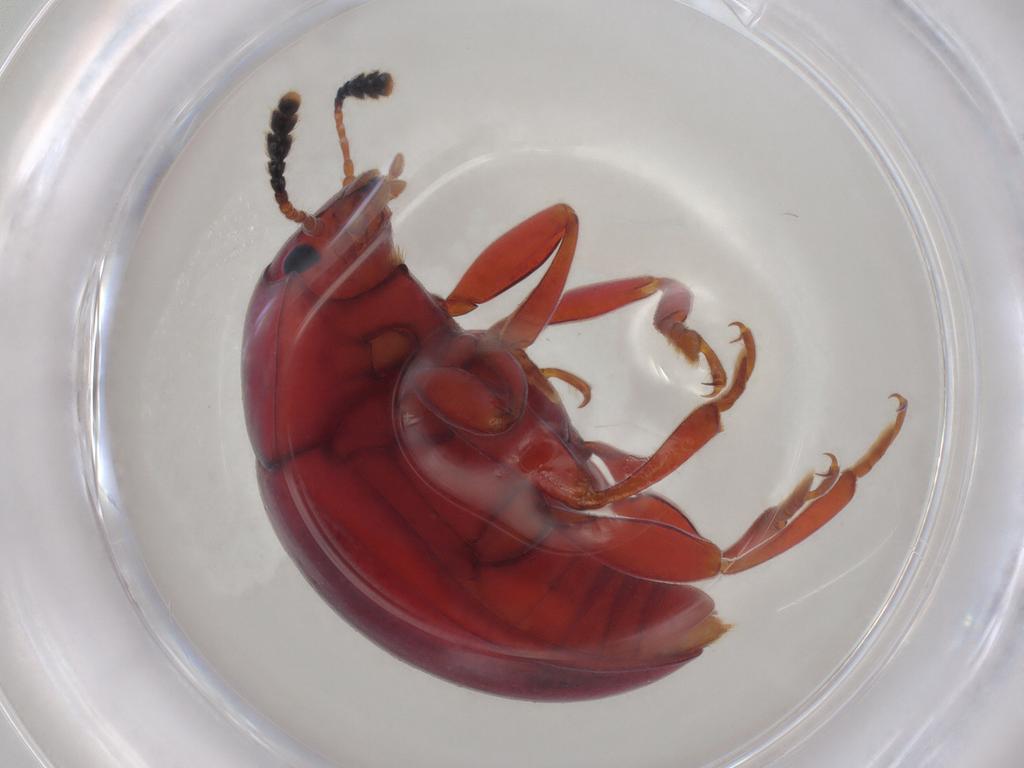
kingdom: Animalia
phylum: Arthropoda
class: Insecta
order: Coleoptera
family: Erotylidae
